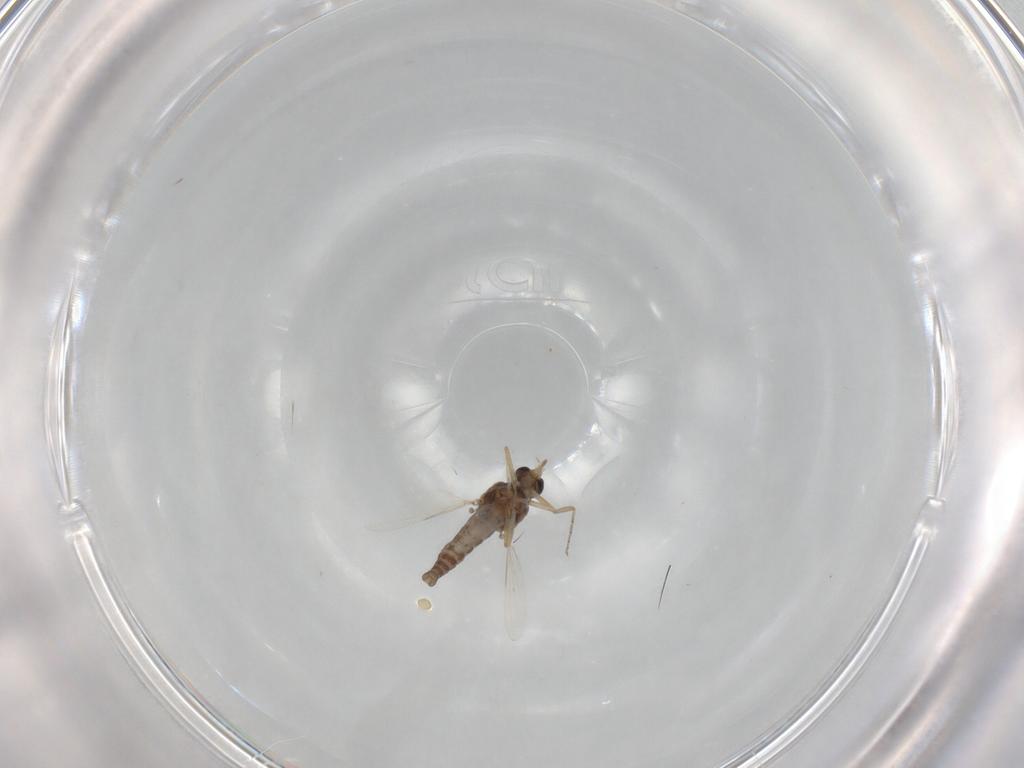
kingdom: Animalia
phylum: Arthropoda
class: Insecta
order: Diptera
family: Ceratopogonidae
